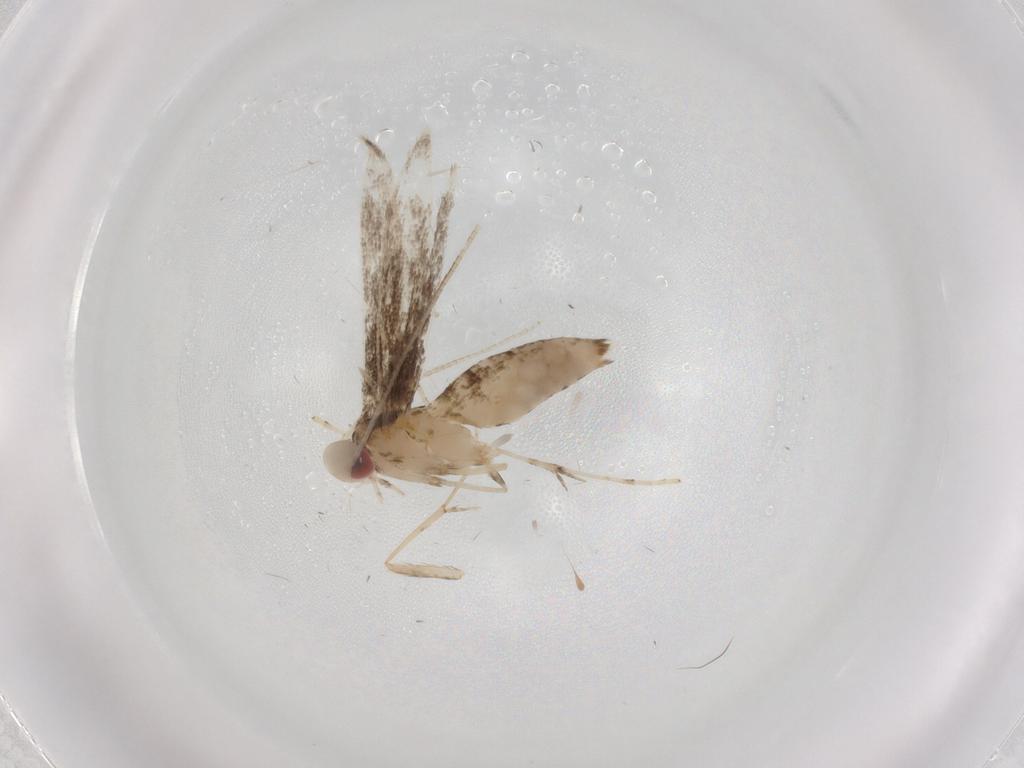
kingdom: Animalia
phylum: Arthropoda
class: Insecta
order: Lepidoptera
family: Gracillariidae
